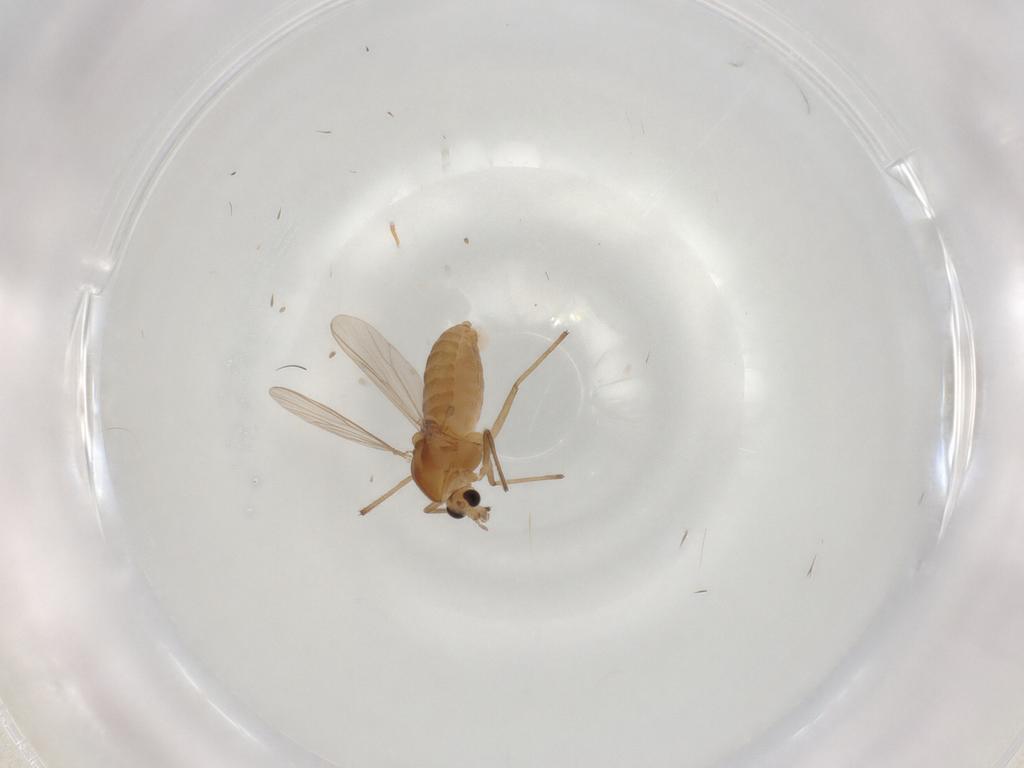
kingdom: Animalia
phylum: Arthropoda
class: Insecta
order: Diptera
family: Chironomidae
